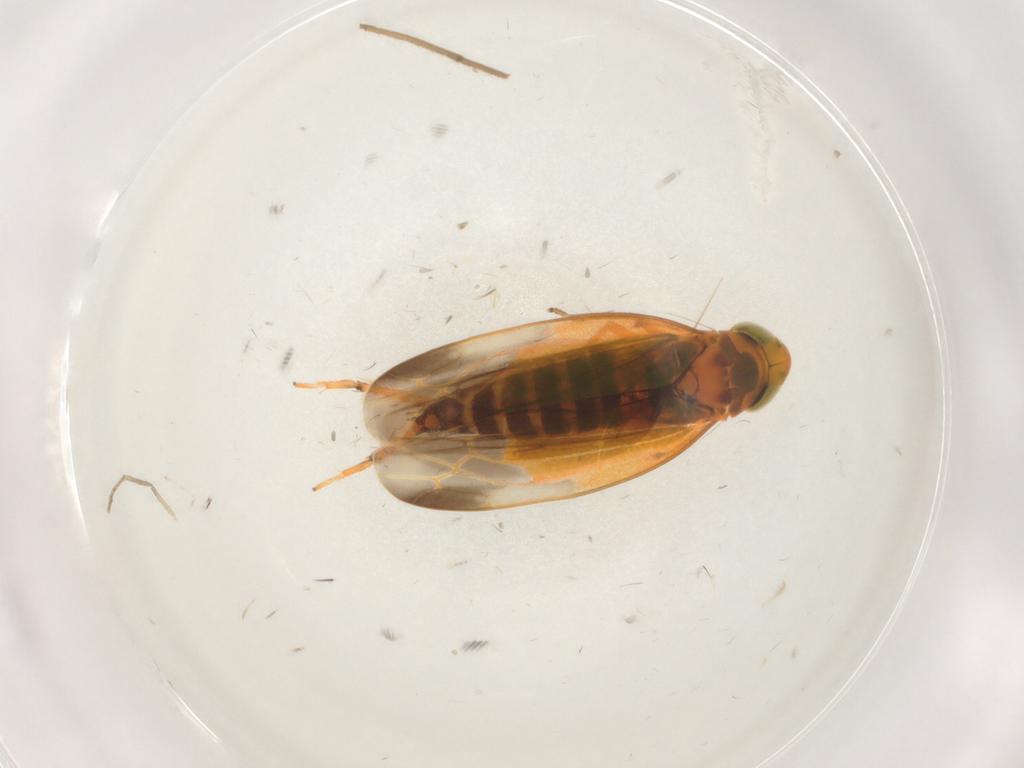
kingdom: Animalia
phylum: Arthropoda
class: Insecta
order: Hemiptera
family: Cicadellidae
